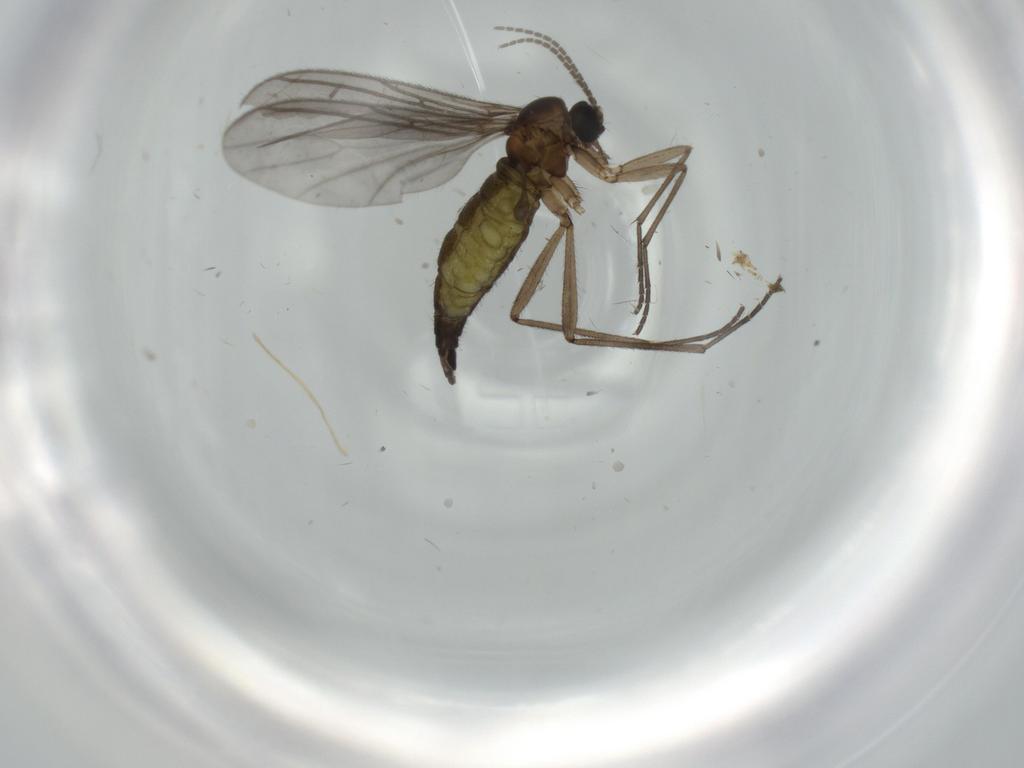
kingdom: Animalia
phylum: Arthropoda
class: Insecta
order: Diptera
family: Sciaridae
